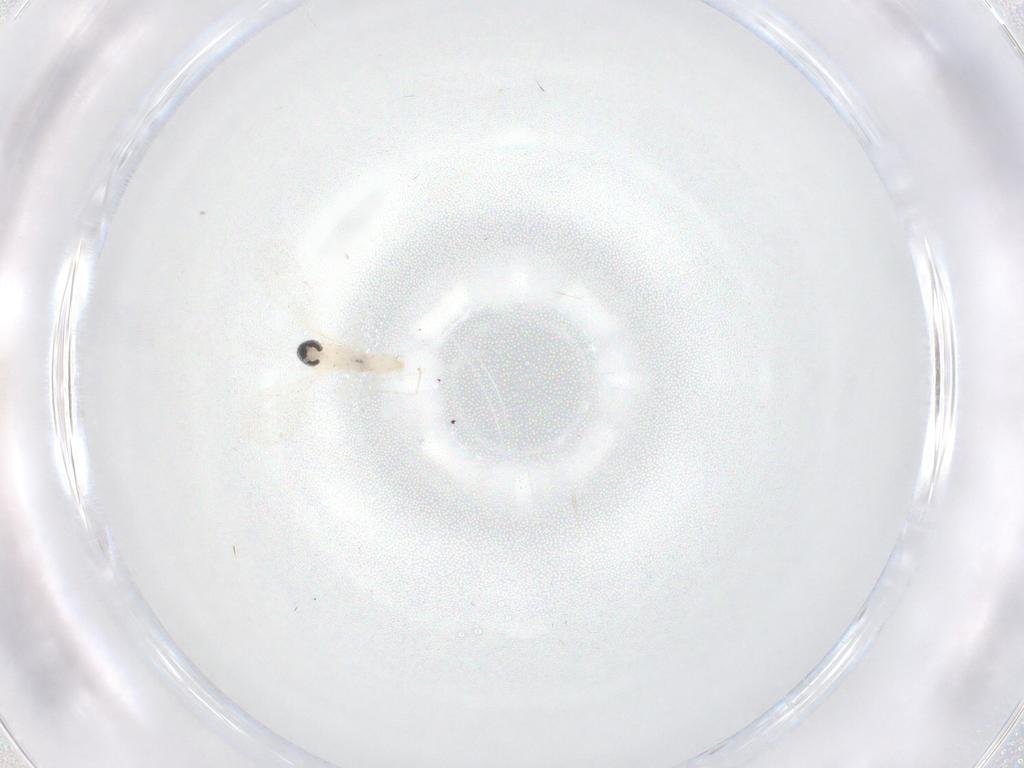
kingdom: Animalia
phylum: Arthropoda
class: Insecta
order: Diptera
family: Cecidomyiidae
